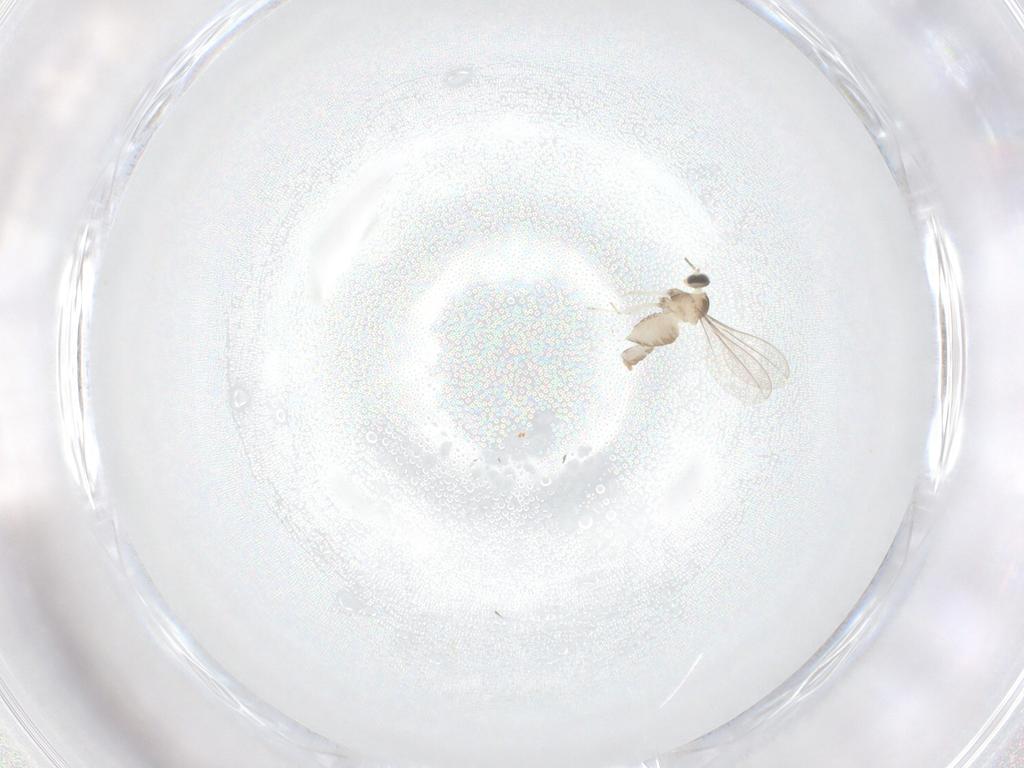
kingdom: Animalia
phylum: Arthropoda
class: Insecta
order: Diptera
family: Cecidomyiidae
